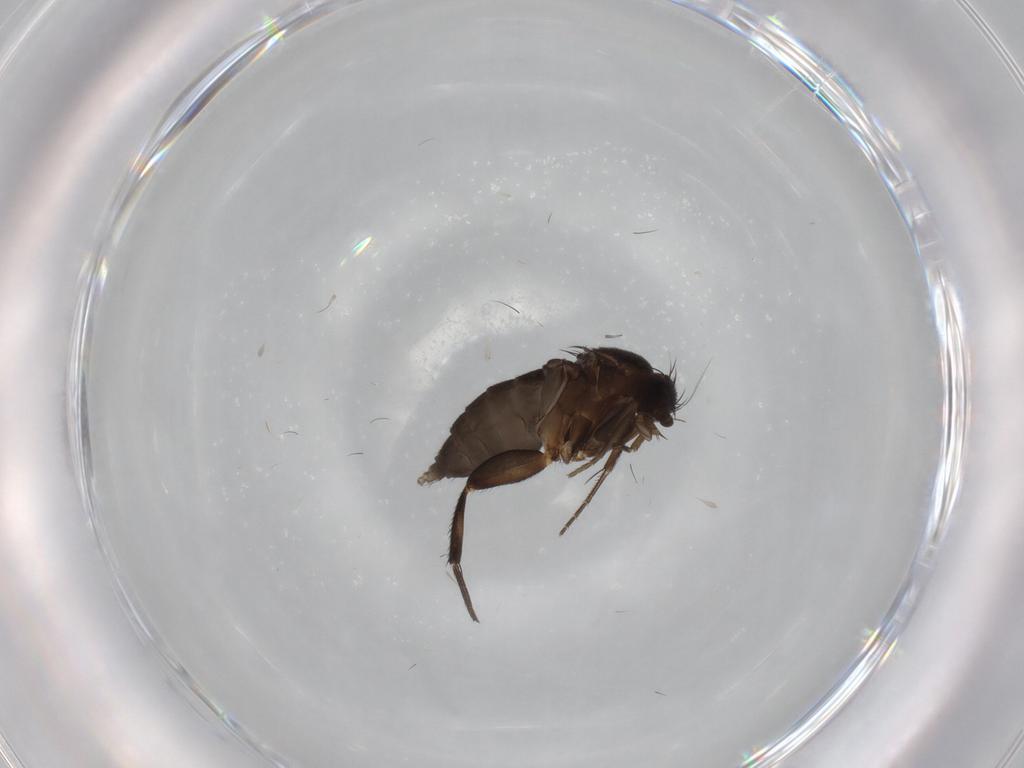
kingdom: Animalia
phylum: Arthropoda
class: Insecta
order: Diptera
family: Phoridae
